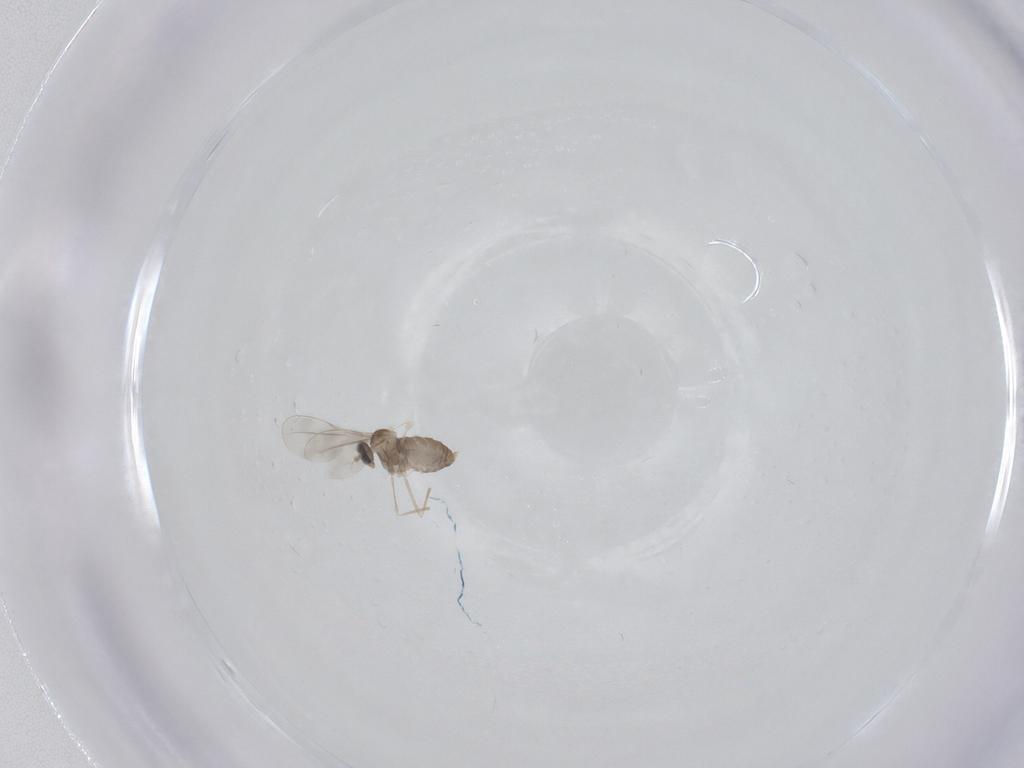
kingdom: Animalia
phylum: Arthropoda
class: Insecta
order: Diptera
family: Cecidomyiidae
